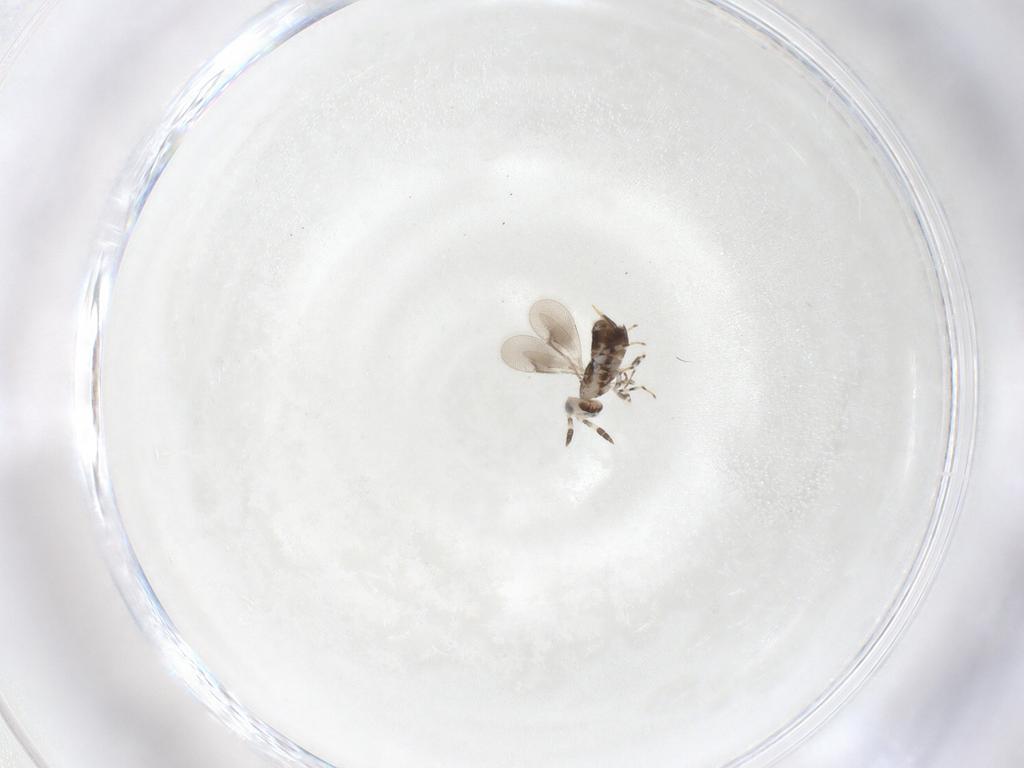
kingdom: Animalia
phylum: Arthropoda
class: Insecta
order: Hymenoptera
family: Aphelinidae
